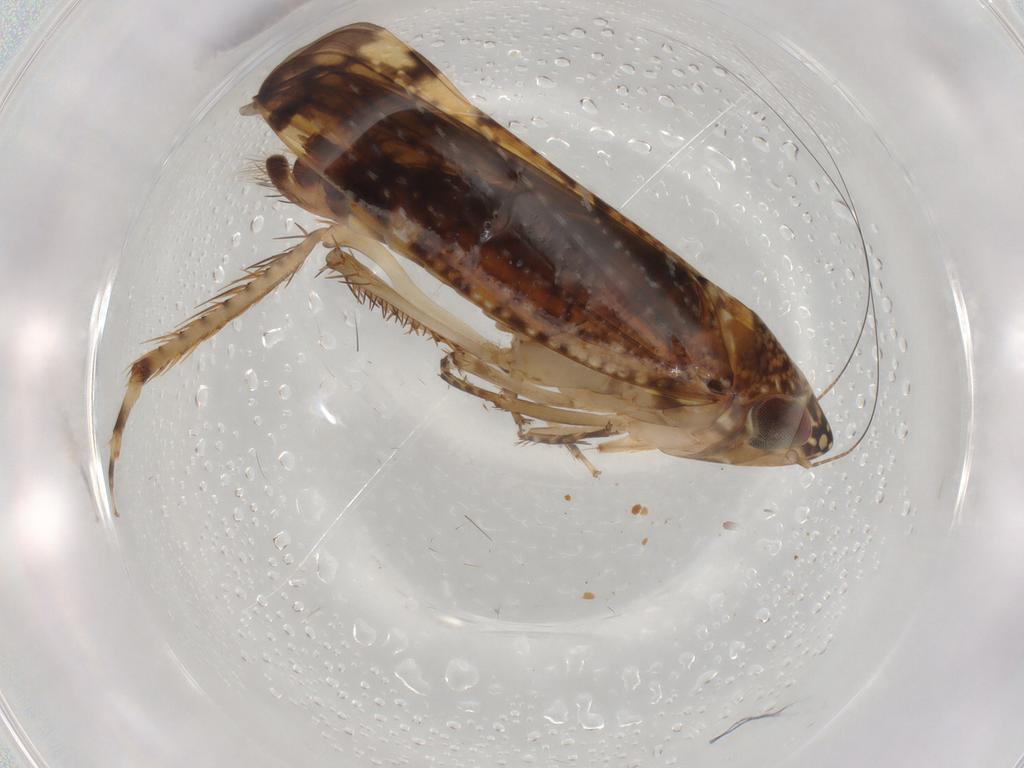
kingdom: Animalia
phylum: Arthropoda
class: Insecta
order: Hemiptera
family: Cicadellidae
